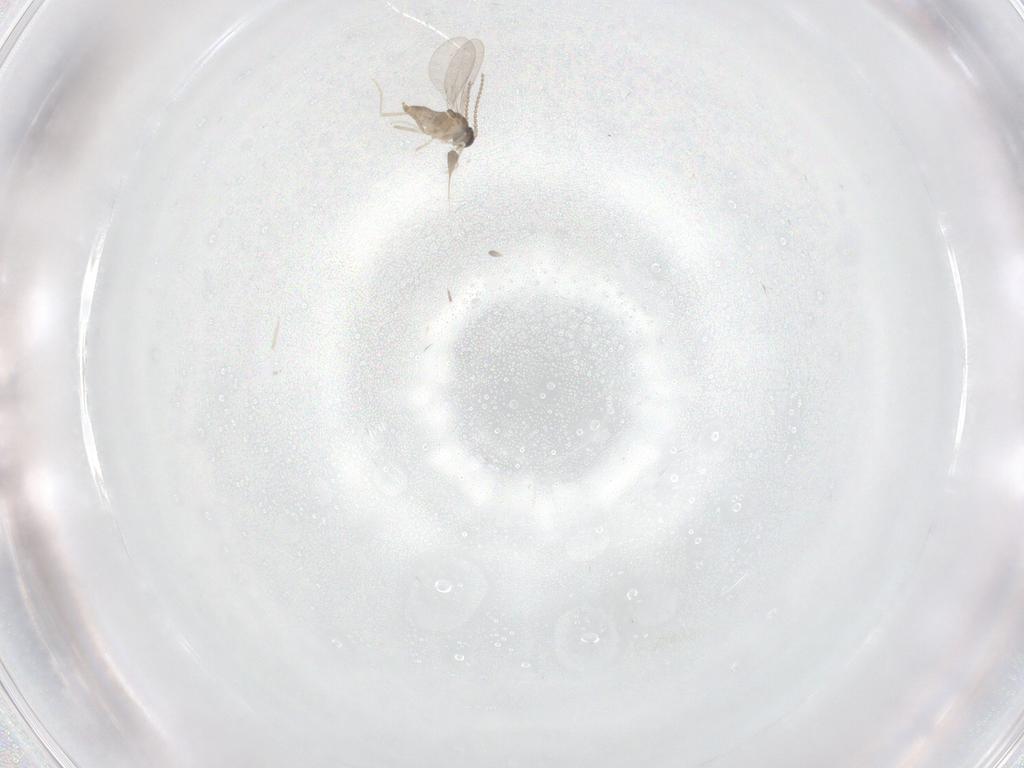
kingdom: Animalia
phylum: Arthropoda
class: Insecta
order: Diptera
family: Cecidomyiidae
